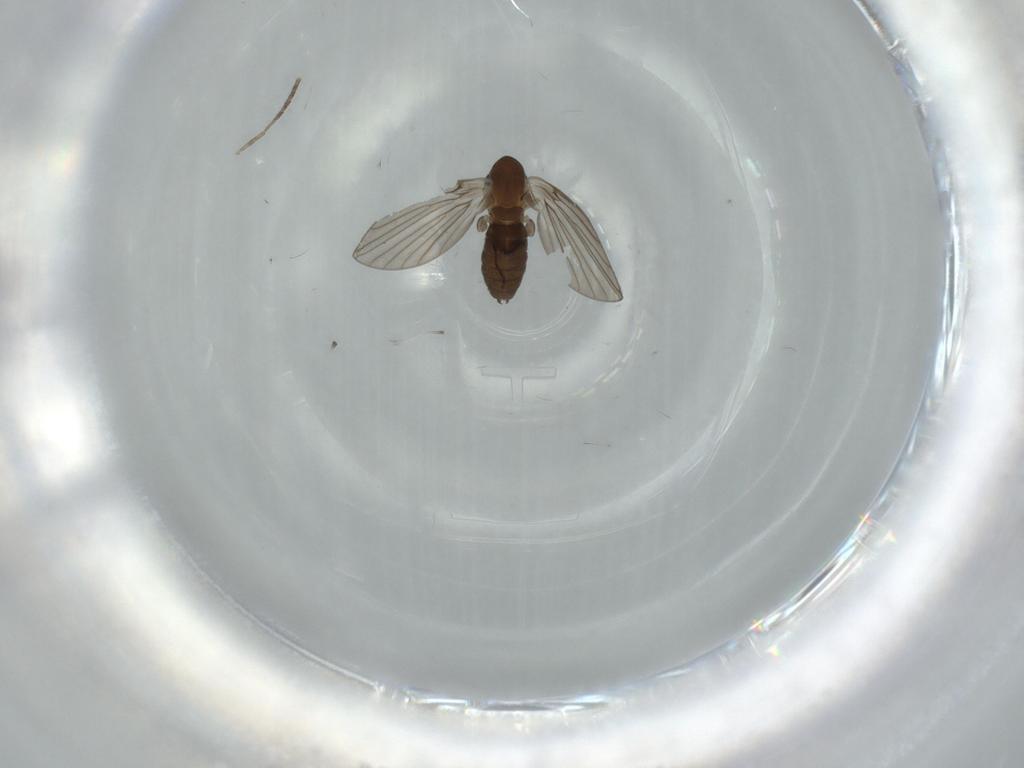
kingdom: Animalia
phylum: Arthropoda
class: Insecta
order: Diptera
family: Psychodidae
